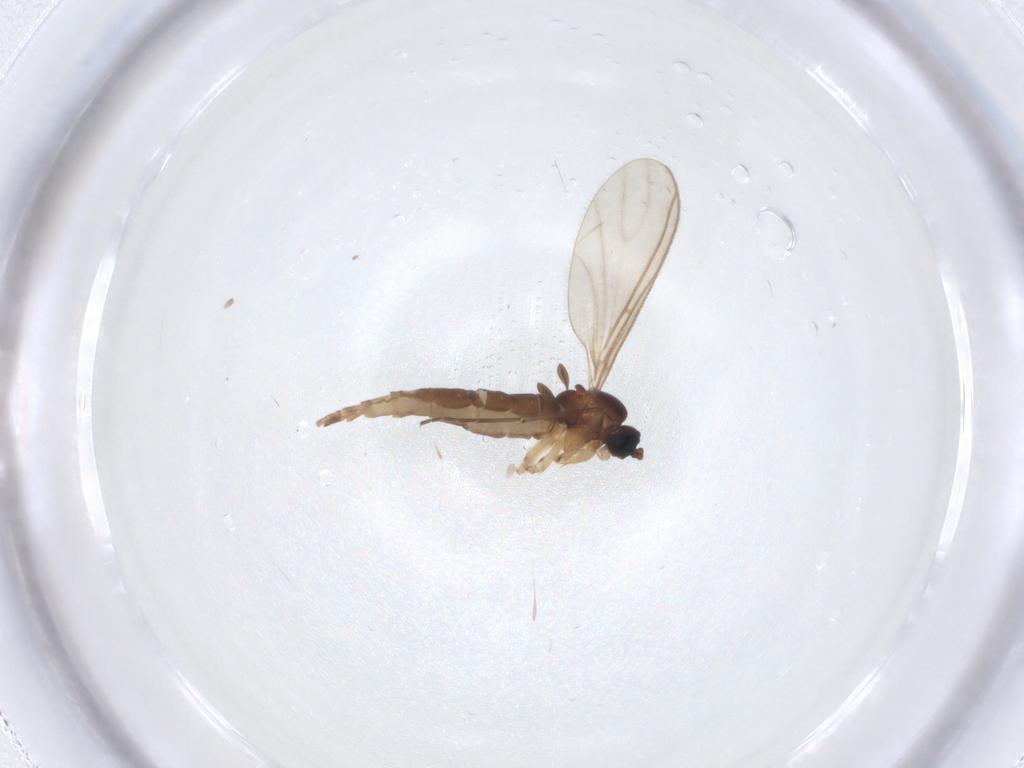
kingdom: Animalia
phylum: Arthropoda
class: Insecta
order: Diptera
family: Sciaridae
